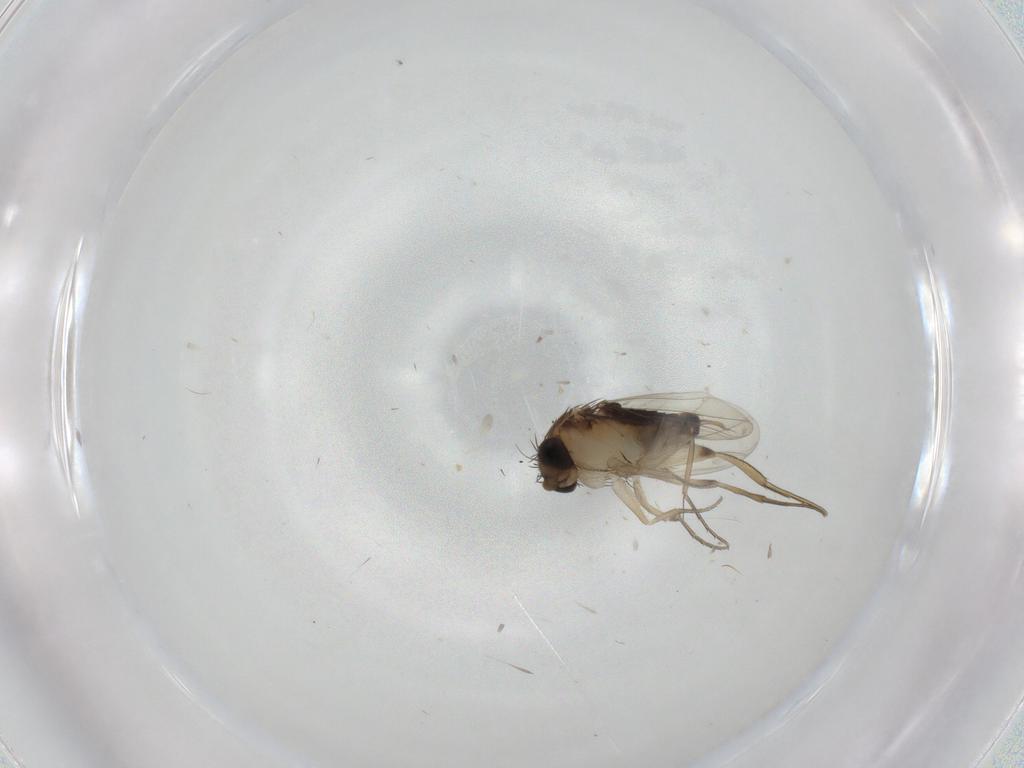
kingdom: Animalia
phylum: Arthropoda
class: Insecta
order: Diptera
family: Phoridae
